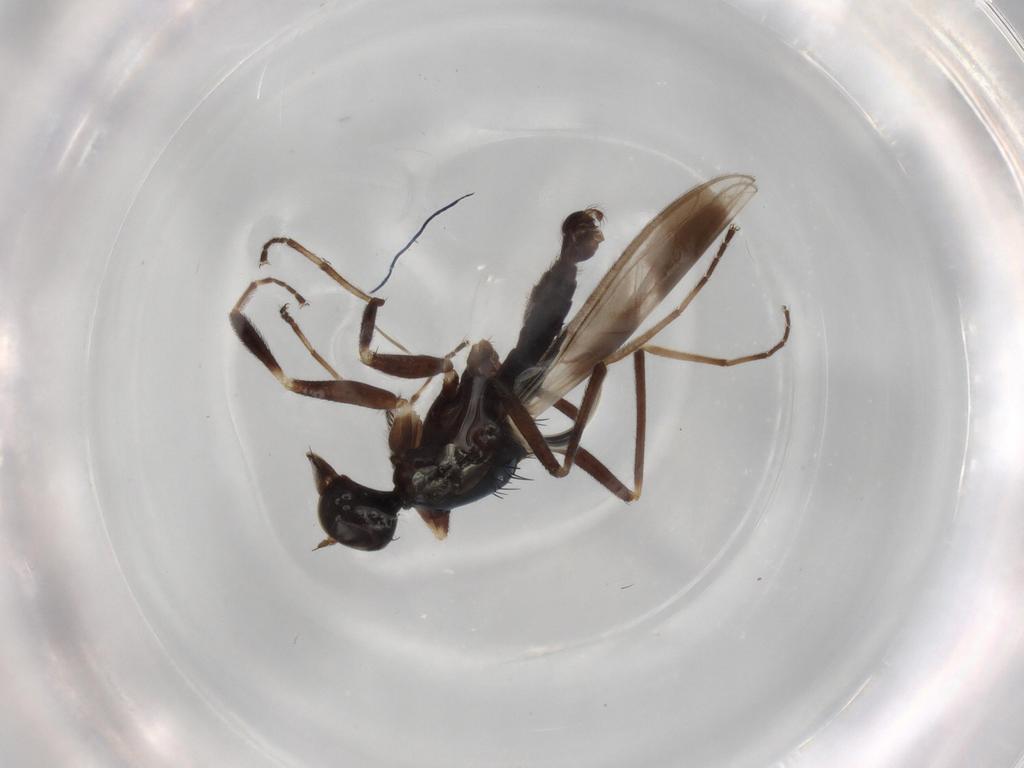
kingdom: Animalia
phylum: Arthropoda
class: Insecta
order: Diptera
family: Hybotidae
